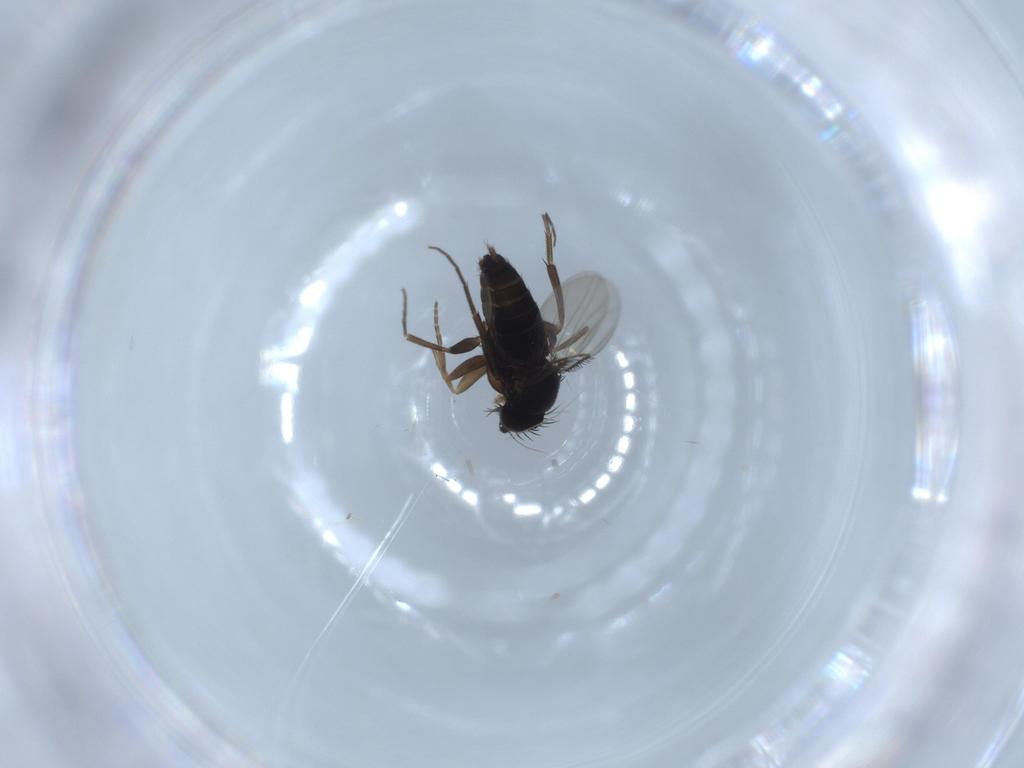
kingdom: Animalia
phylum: Arthropoda
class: Insecta
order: Diptera
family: Phoridae
